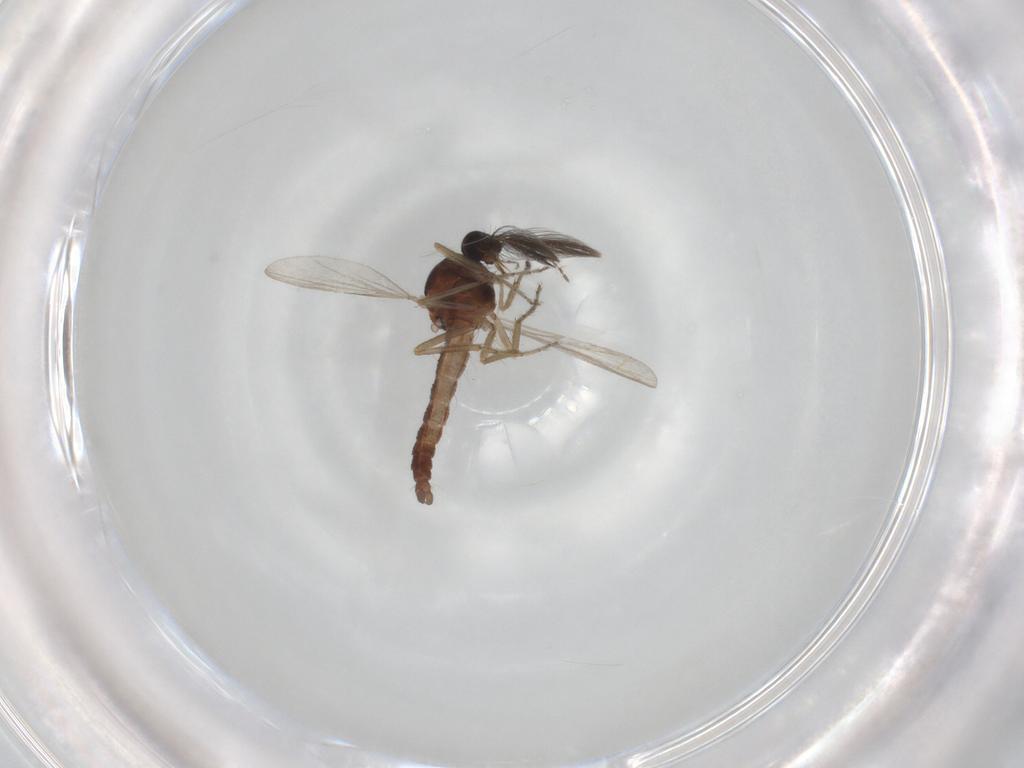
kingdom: Animalia
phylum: Arthropoda
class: Insecta
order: Diptera
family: Ceratopogonidae
